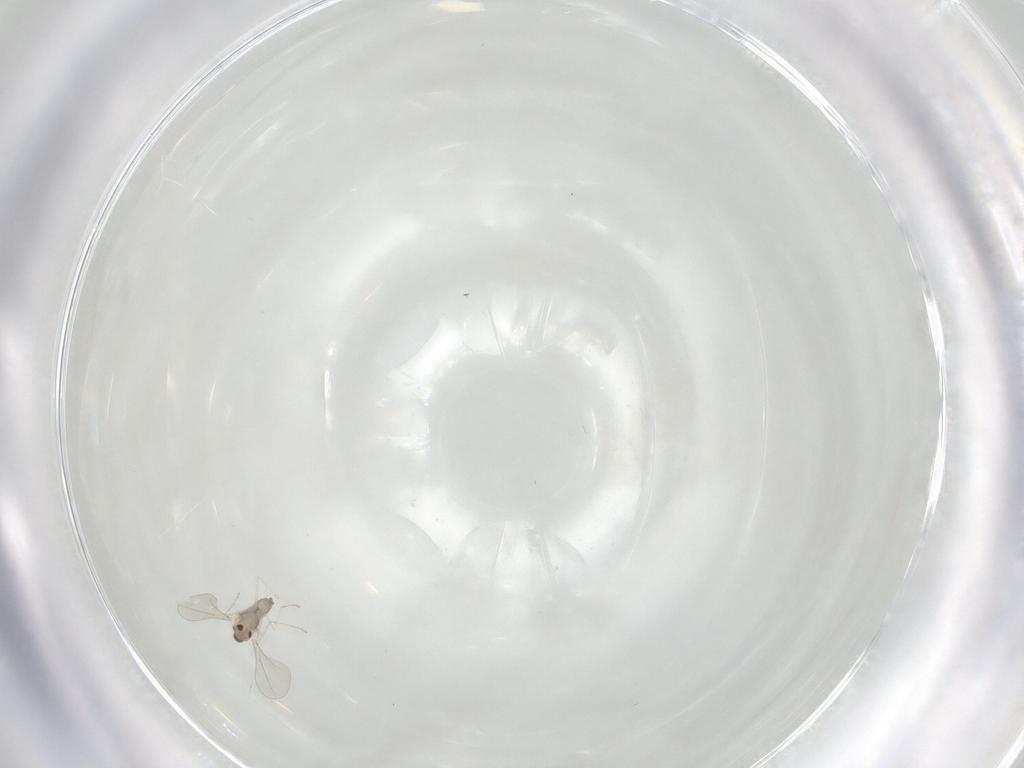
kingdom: Animalia
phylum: Arthropoda
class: Insecta
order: Diptera
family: Cecidomyiidae
